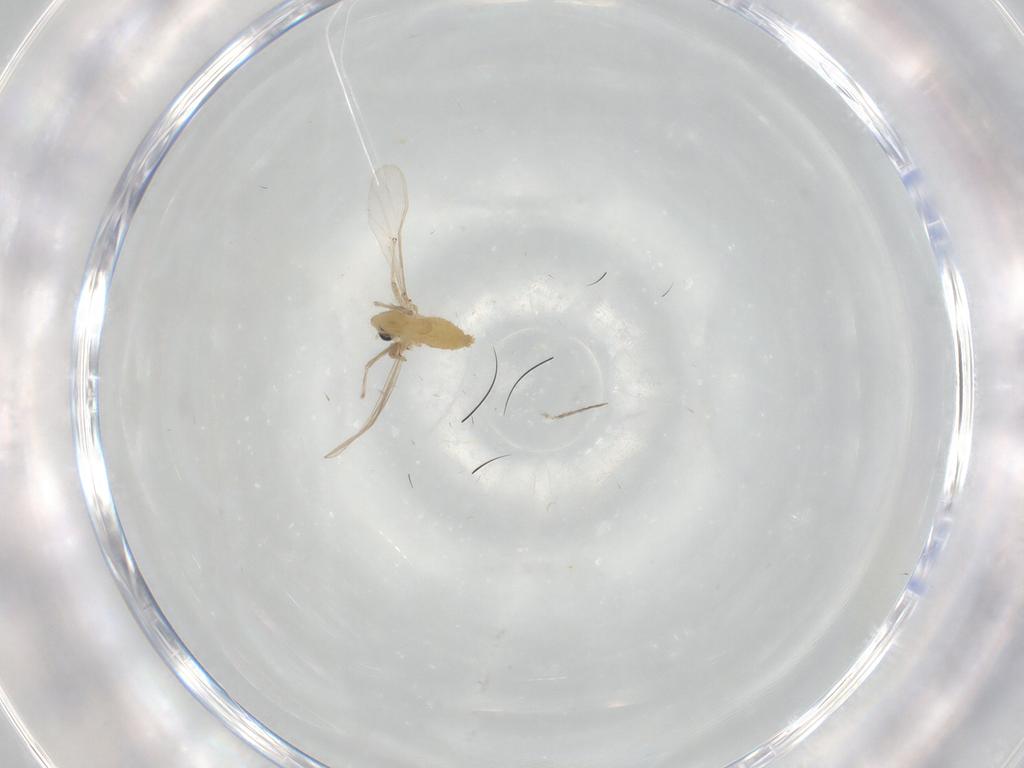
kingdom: Animalia
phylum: Arthropoda
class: Insecta
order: Diptera
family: Chironomidae
